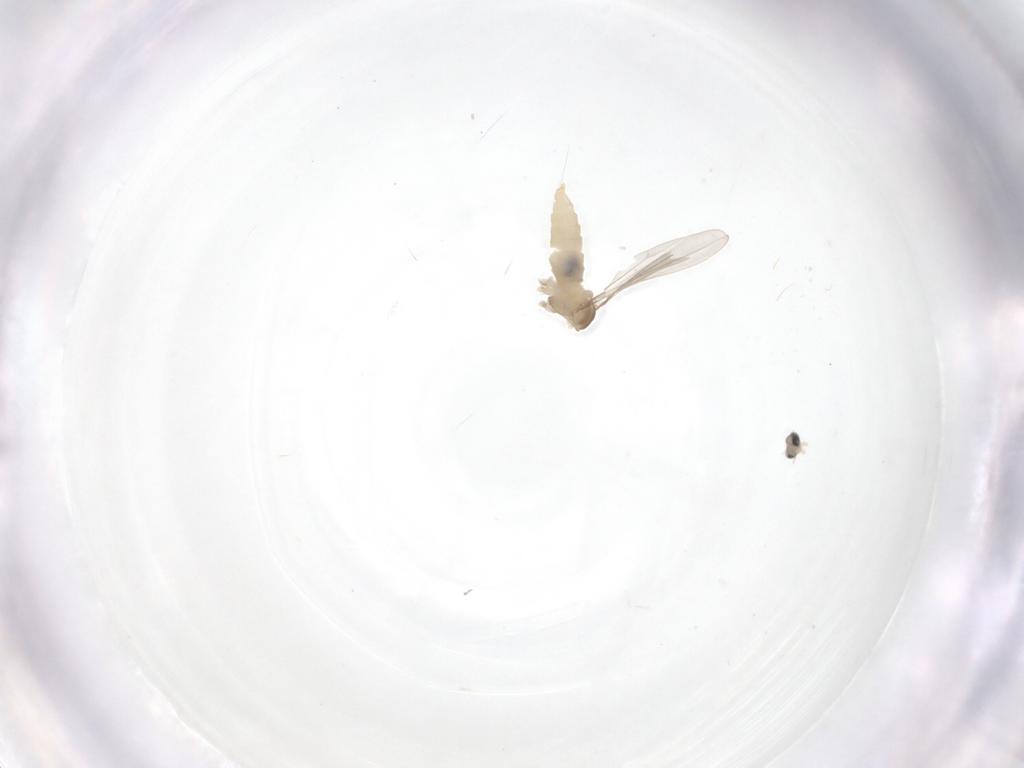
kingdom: Animalia
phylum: Arthropoda
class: Insecta
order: Diptera
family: Cecidomyiidae
